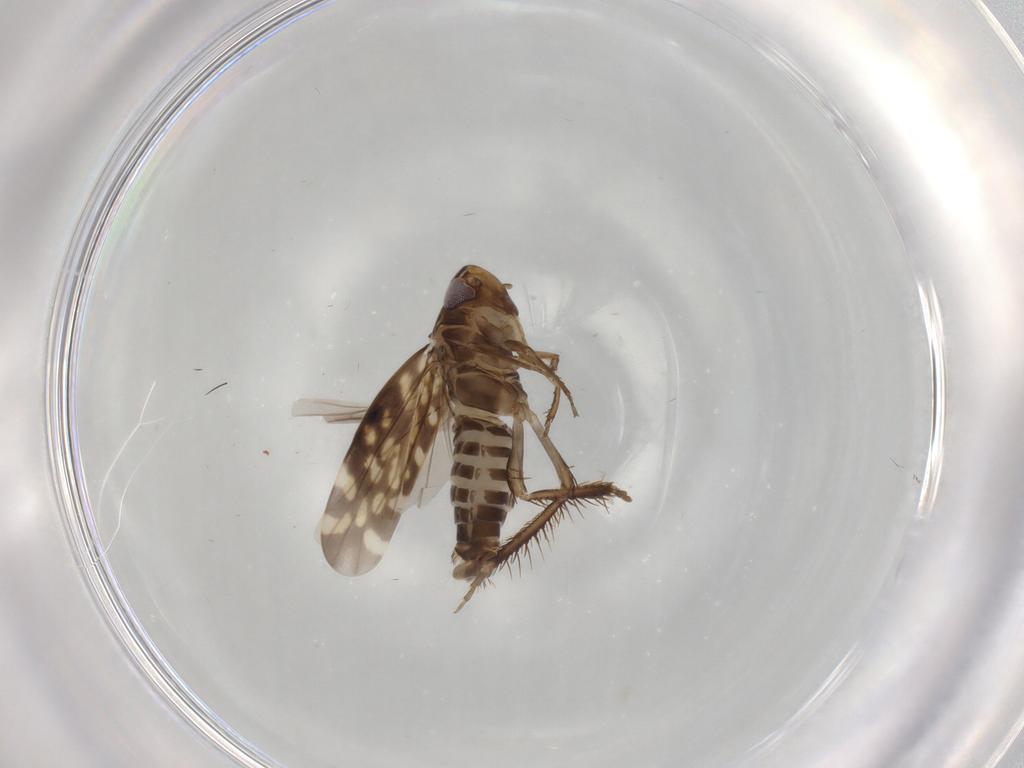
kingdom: Animalia
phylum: Arthropoda
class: Insecta
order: Hemiptera
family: Cicadellidae
